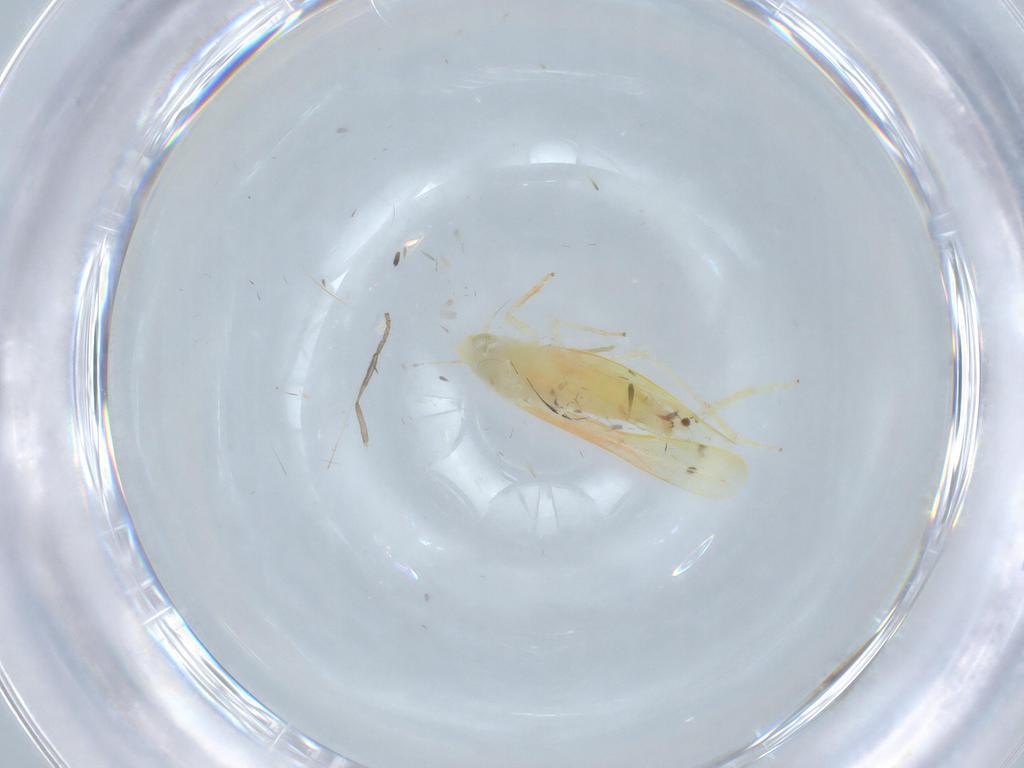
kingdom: Animalia
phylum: Arthropoda
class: Insecta
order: Hemiptera
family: Cicadellidae
